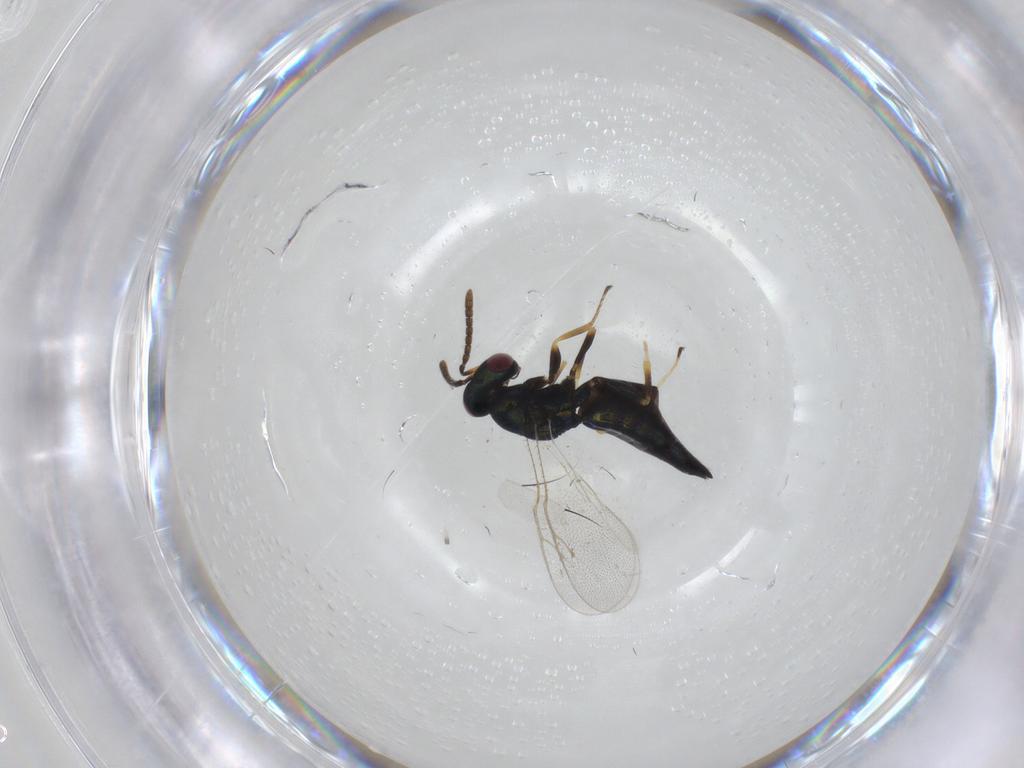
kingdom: Animalia
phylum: Arthropoda
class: Insecta
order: Hymenoptera
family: Pteromalidae
